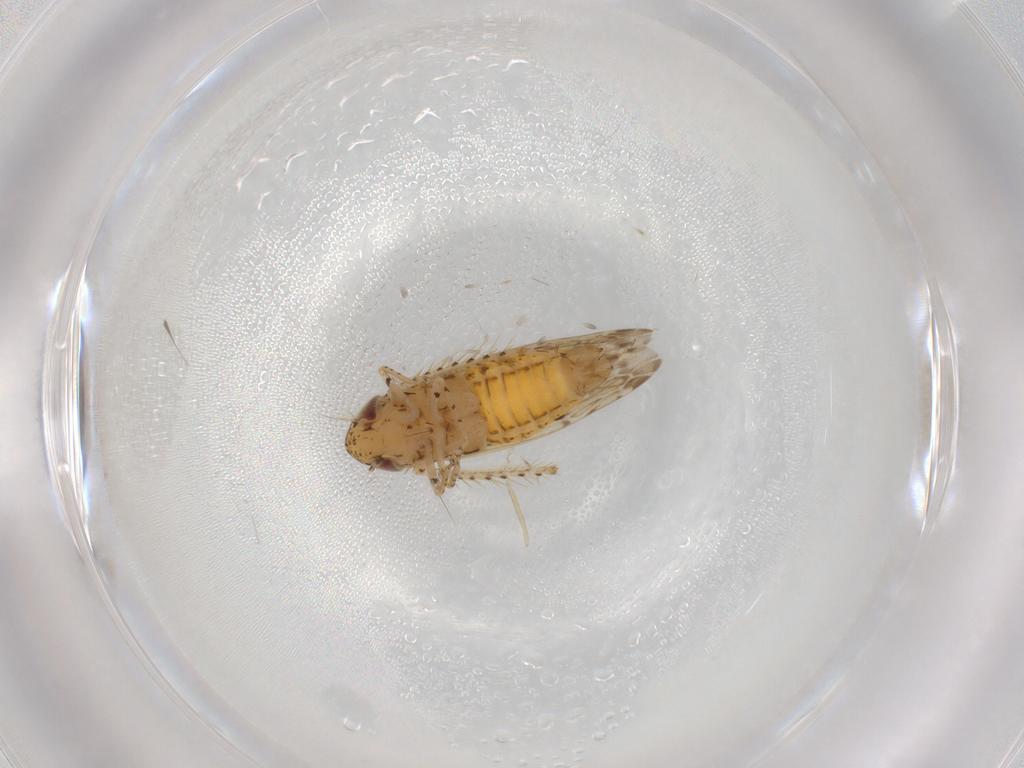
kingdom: Animalia
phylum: Arthropoda
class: Insecta
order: Hemiptera
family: Cicadellidae
